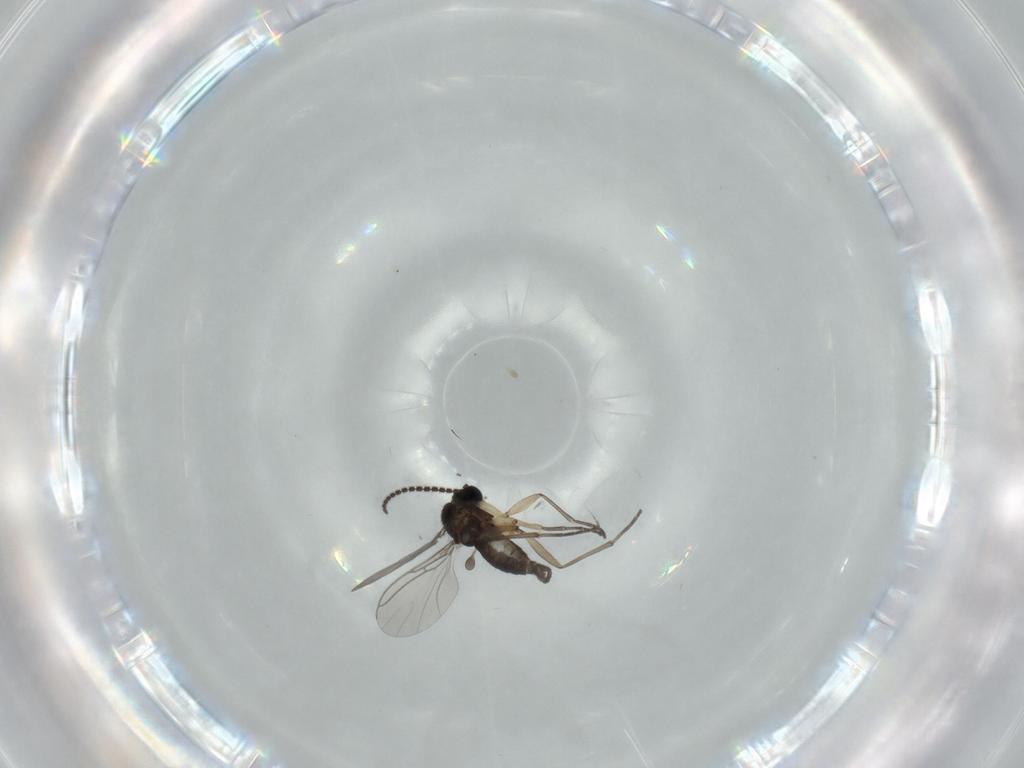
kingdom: Animalia
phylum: Arthropoda
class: Insecta
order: Diptera
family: Sciaridae
